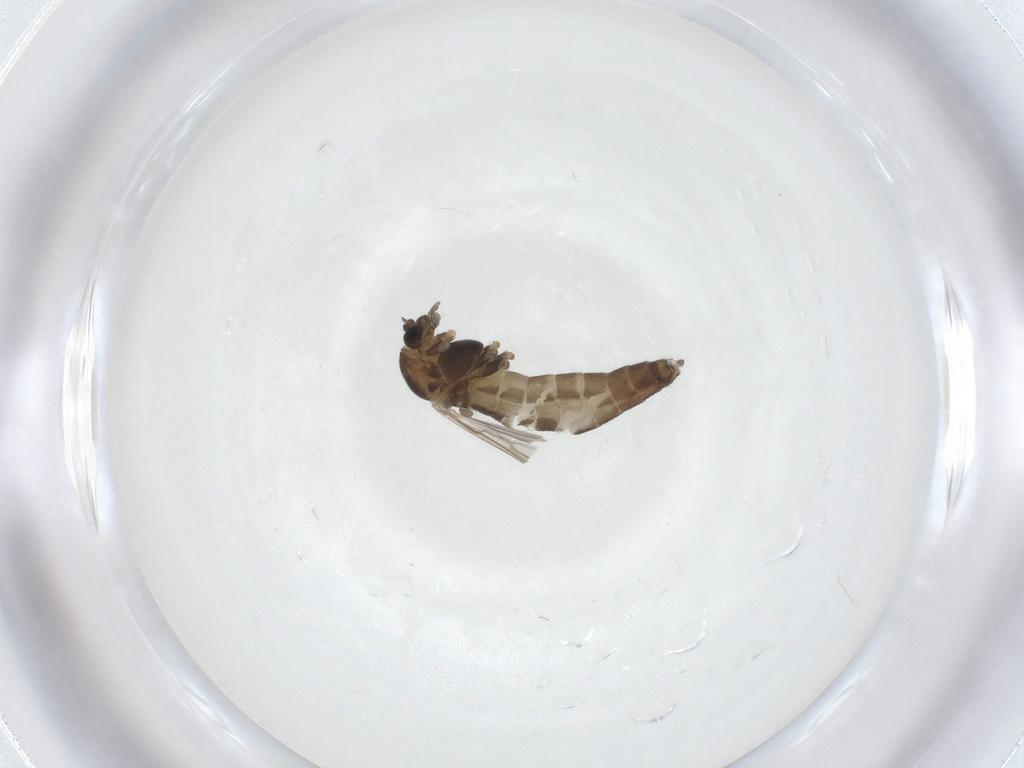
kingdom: Animalia
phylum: Arthropoda
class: Insecta
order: Diptera
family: Chironomidae
